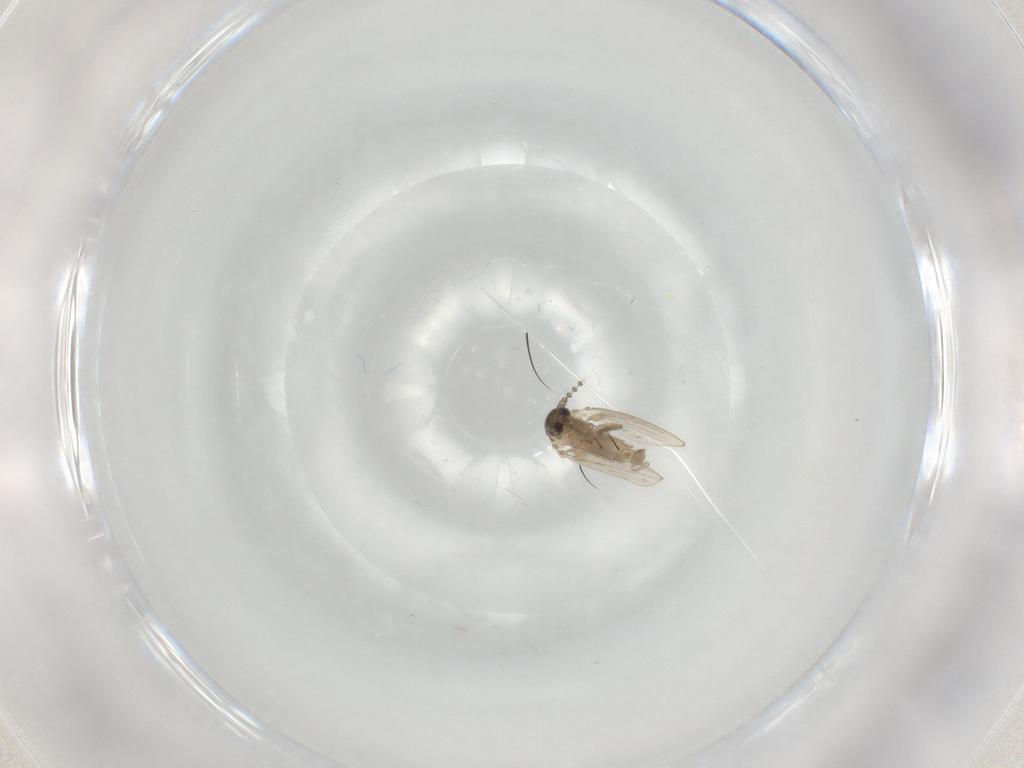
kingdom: Animalia
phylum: Arthropoda
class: Insecta
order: Diptera
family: Psychodidae
